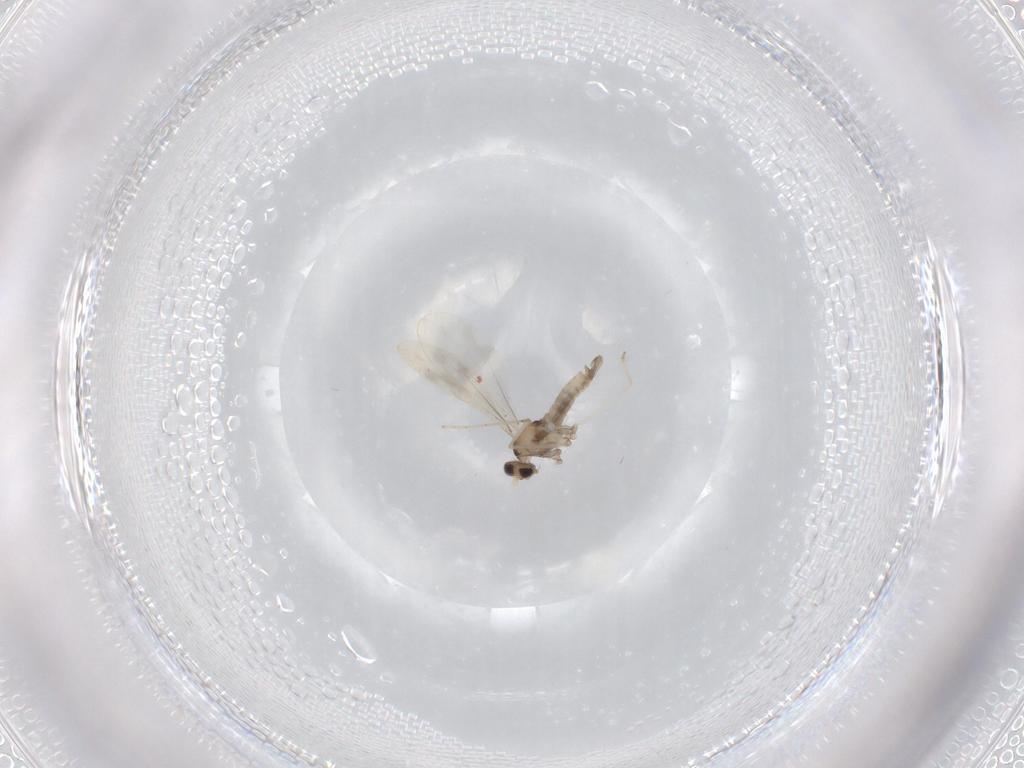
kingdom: Animalia
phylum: Arthropoda
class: Insecta
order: Diptera
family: Cecidomyiidae
